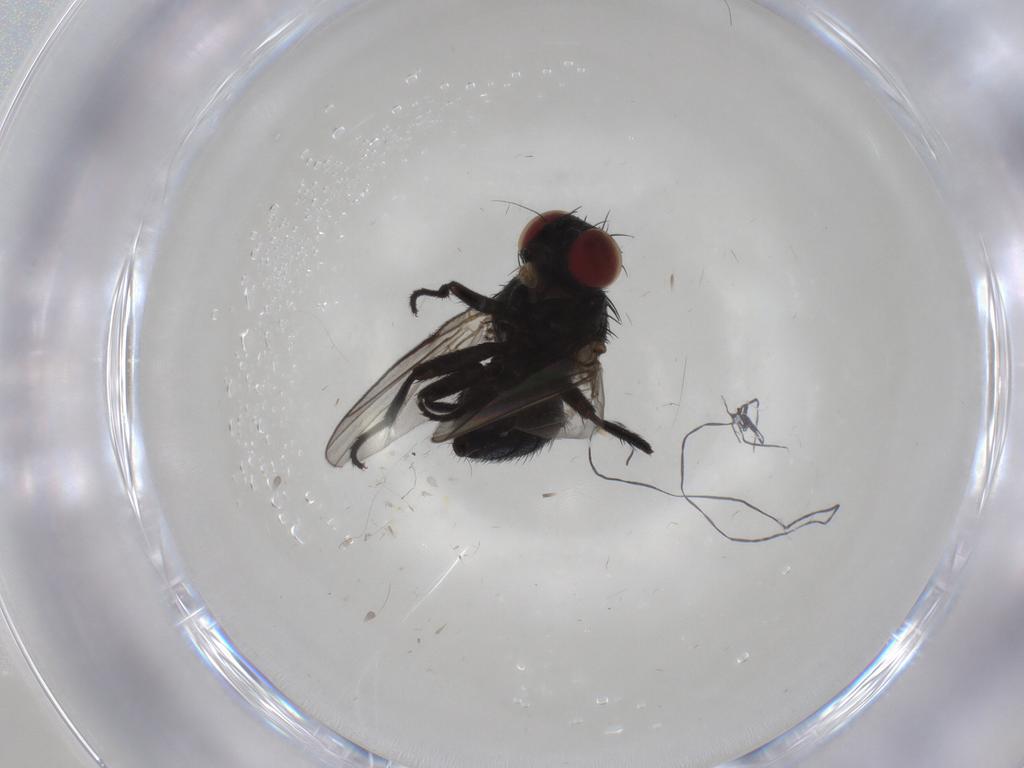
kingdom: Animalia
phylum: Arthropoda
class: Insecta
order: Diptera
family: Agromyzidae
